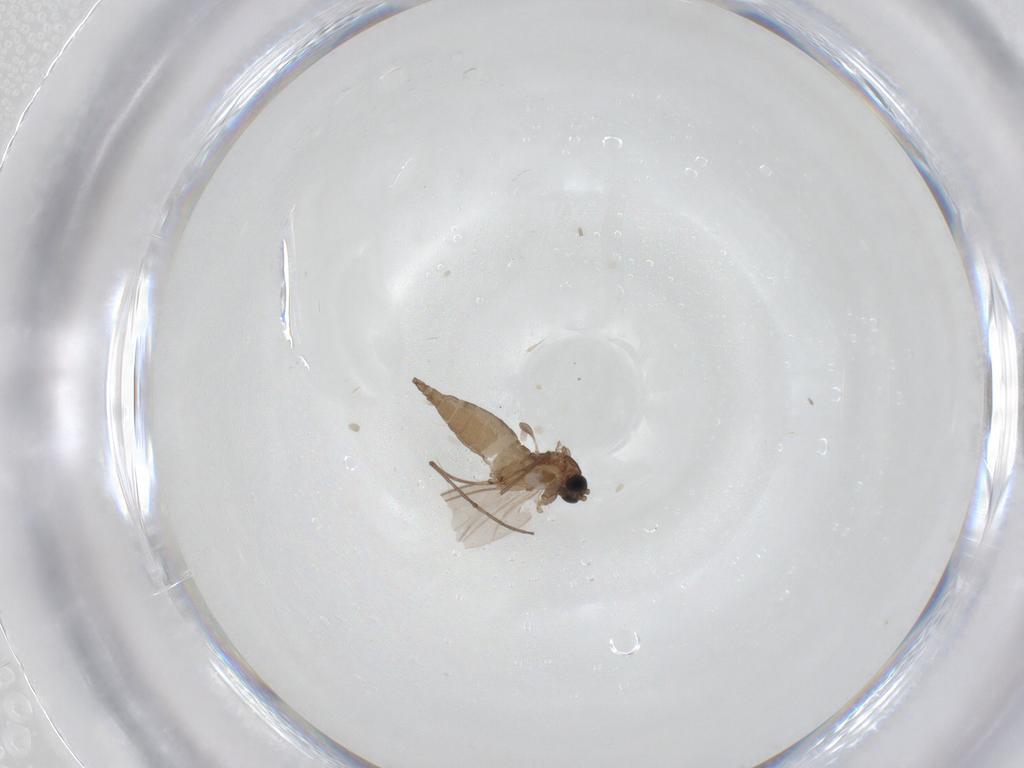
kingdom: Animalia
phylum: Arthropoda
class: Insecta
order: Diptera
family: Sciaridae
